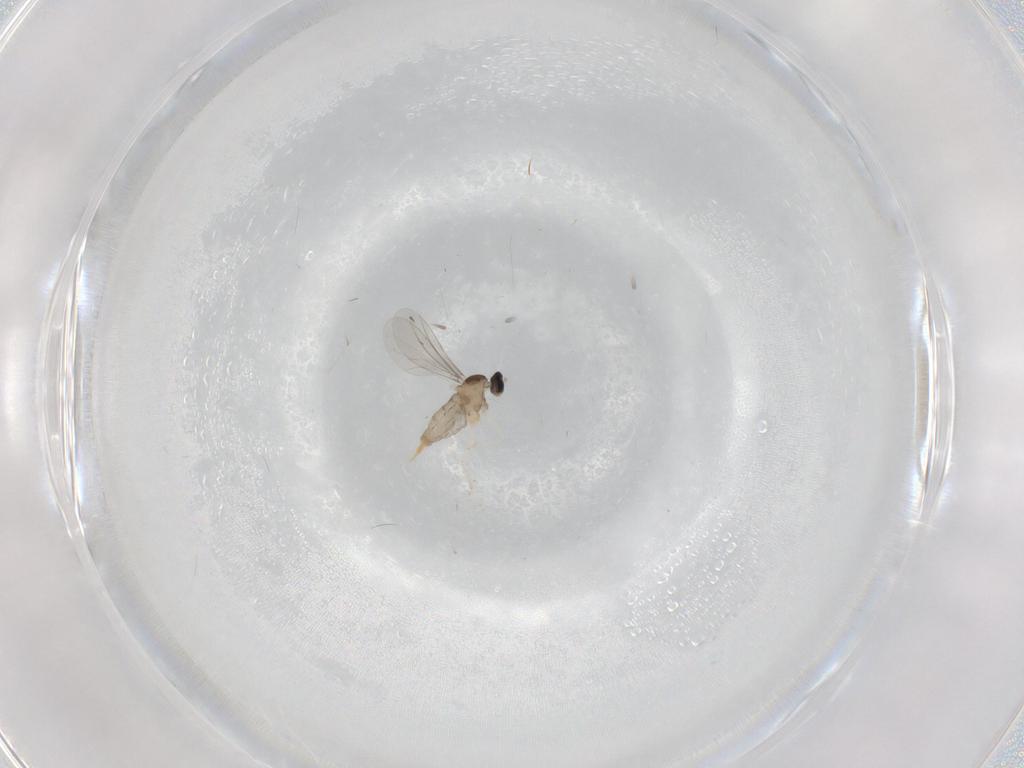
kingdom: Animalia
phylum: Arthropoda
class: Insecta
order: Diptera
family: Cecidomyiidae
